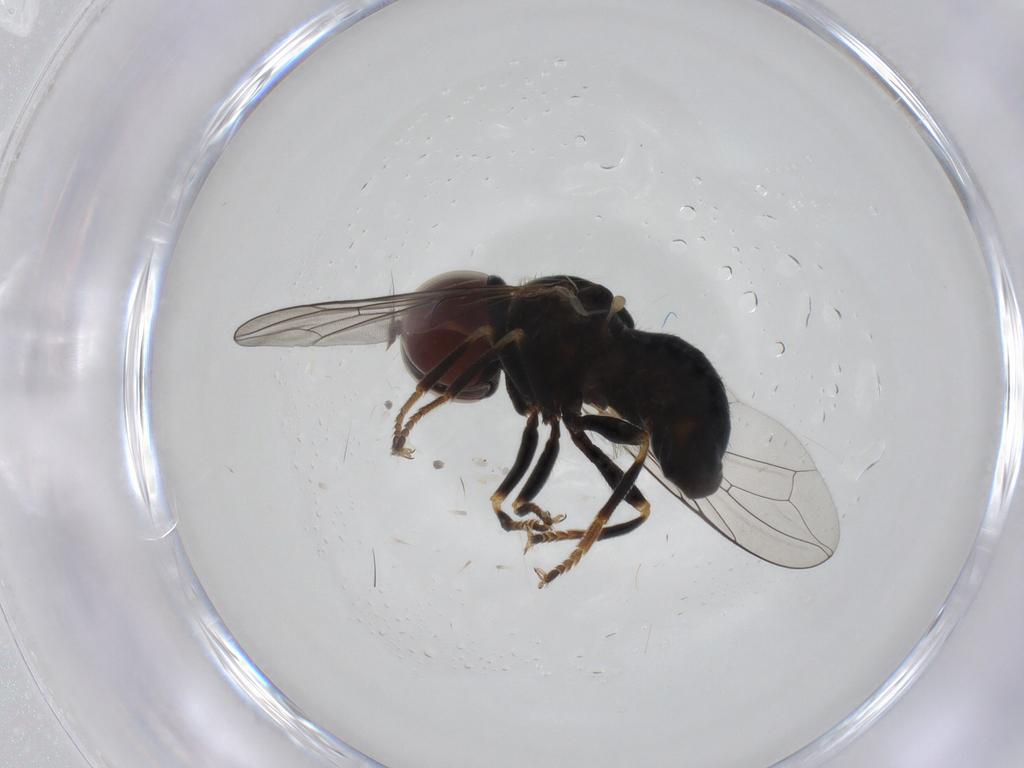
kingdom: Animalia
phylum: Arthropoda
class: Insecta
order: Diptera
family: Pipunculidae
